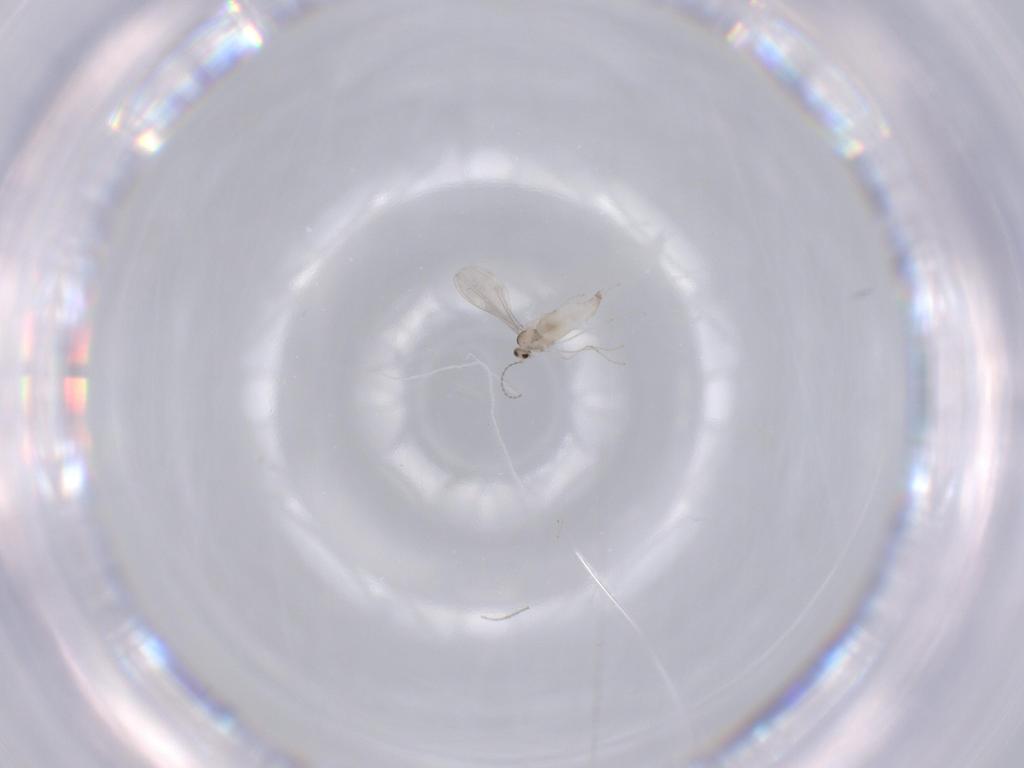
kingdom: Animalia
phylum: Arthropoda
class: Insecta
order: Diptera
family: Cecidomyiidae
